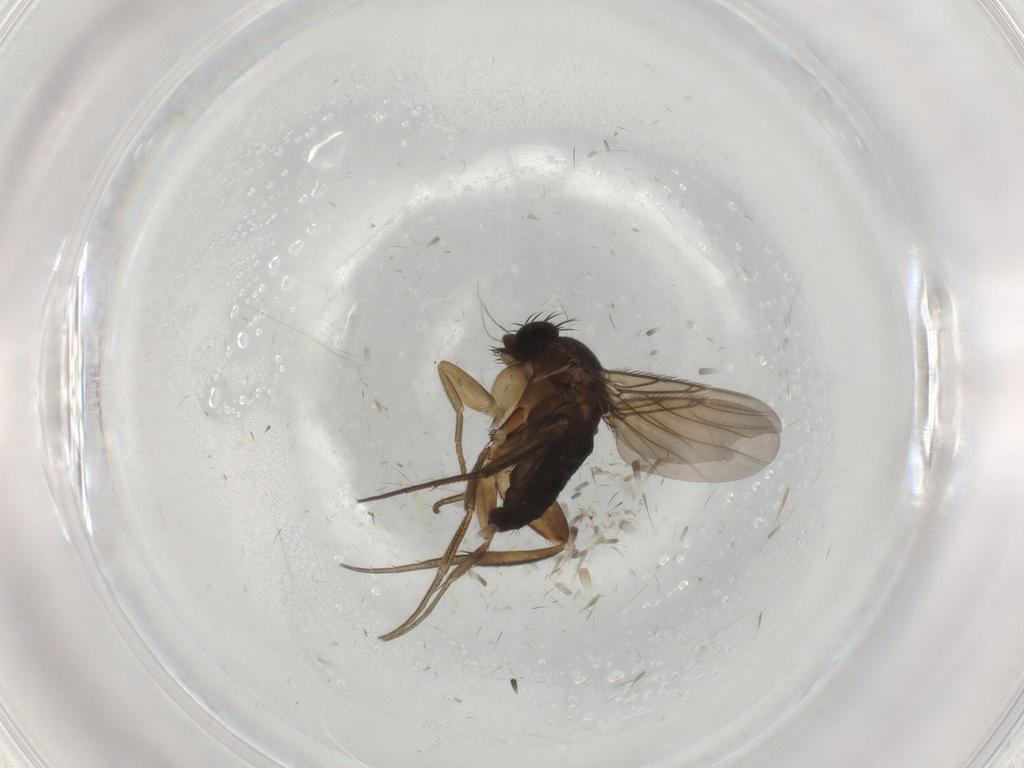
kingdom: Animalia
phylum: Arthropoda
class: Insecta
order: Diptera
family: Phoridae
